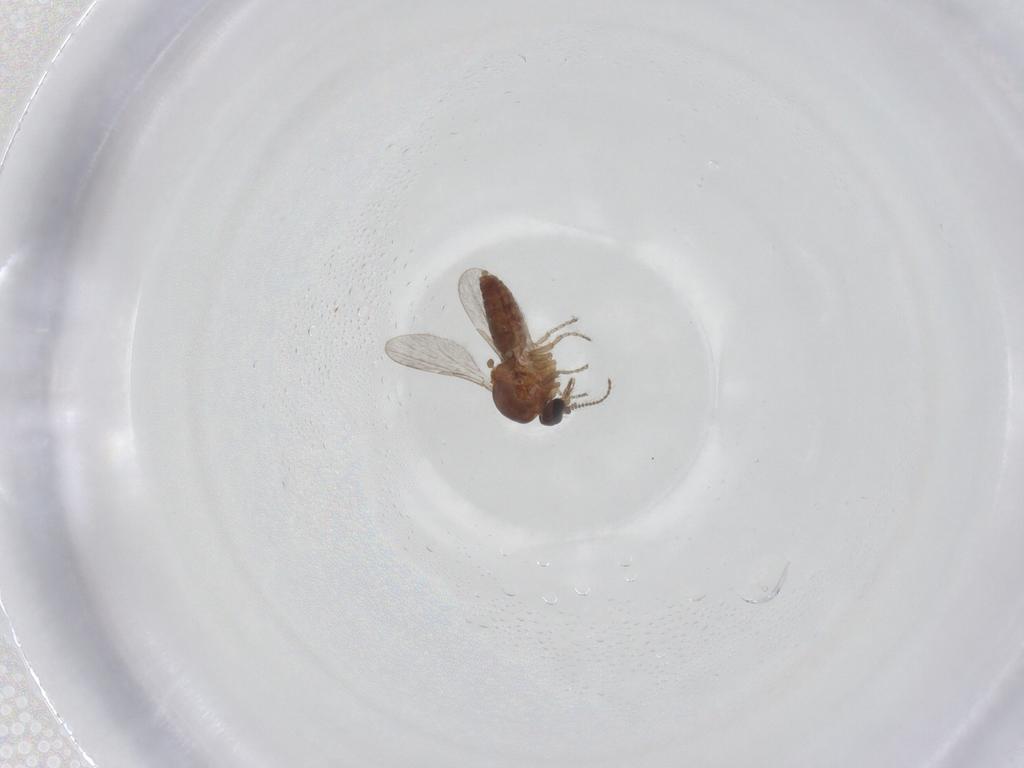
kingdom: Animalia
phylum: Arthropoda
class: Insecta
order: Diptera
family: Ceratopogonidae
